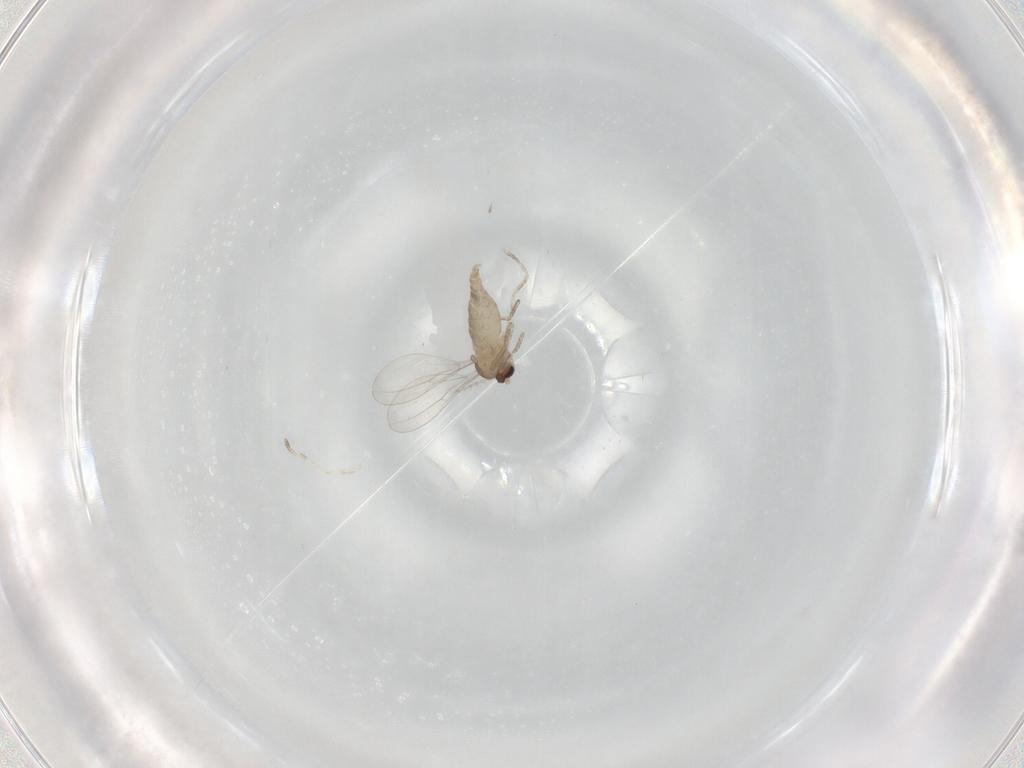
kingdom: Animalia
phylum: Arthropoda
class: Insecta
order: Diptera
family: Cecidomyiidae
